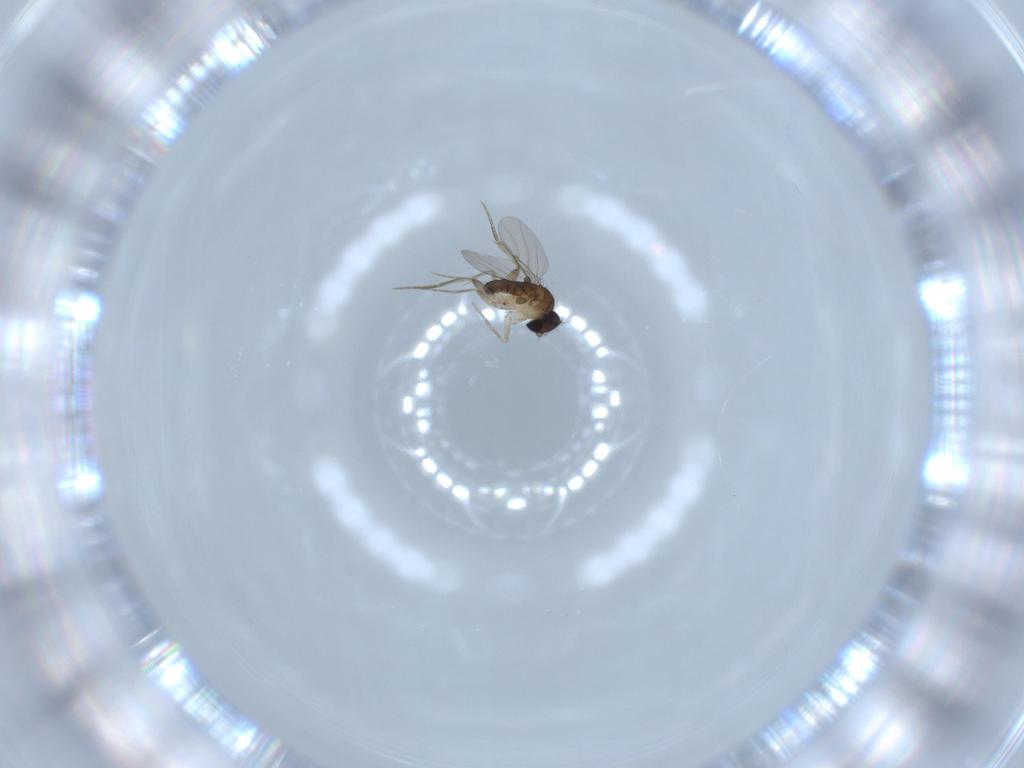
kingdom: Animalia
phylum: Arthropoda
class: Insecta
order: Diptera
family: Phoridae
